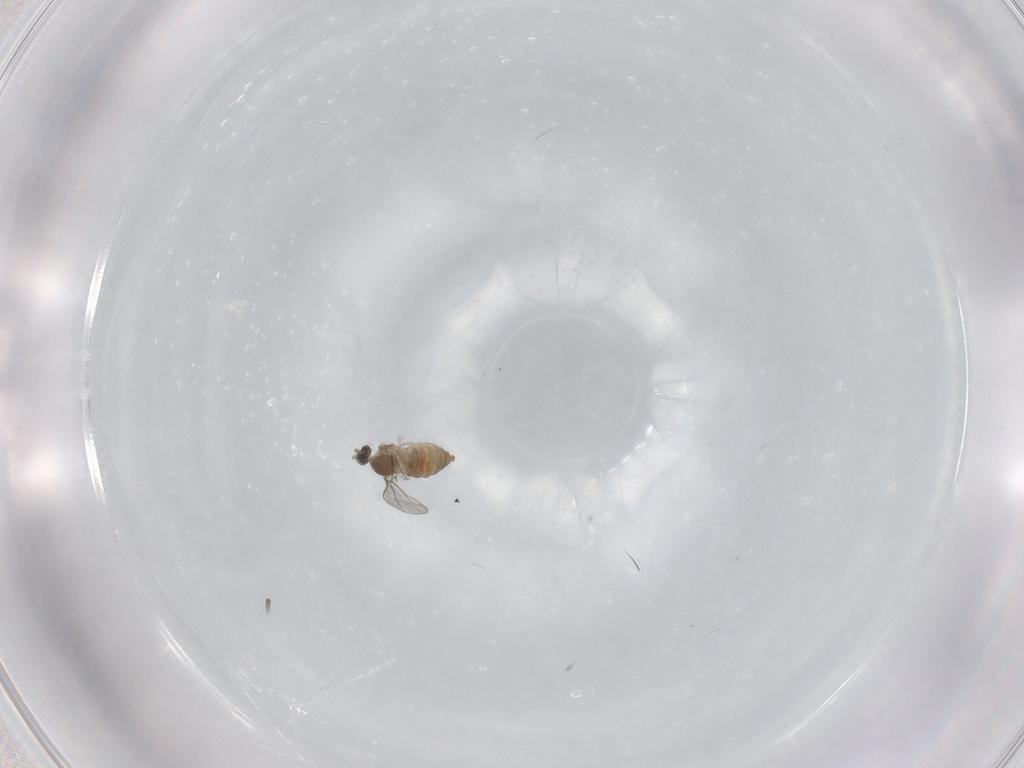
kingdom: Animalia
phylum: Arthropoda
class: Insecta
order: Diptera
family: Cecidomyiidae
